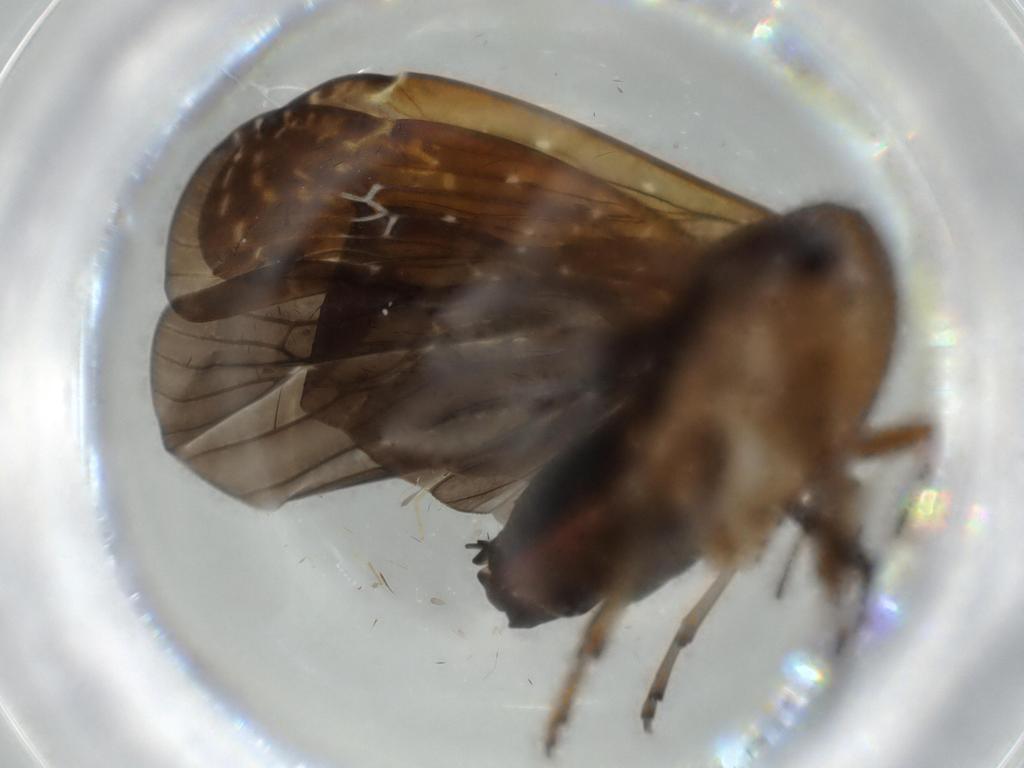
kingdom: Animalia
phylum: Arthropoda
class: Insecta
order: Hemiptera
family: Achilidae
